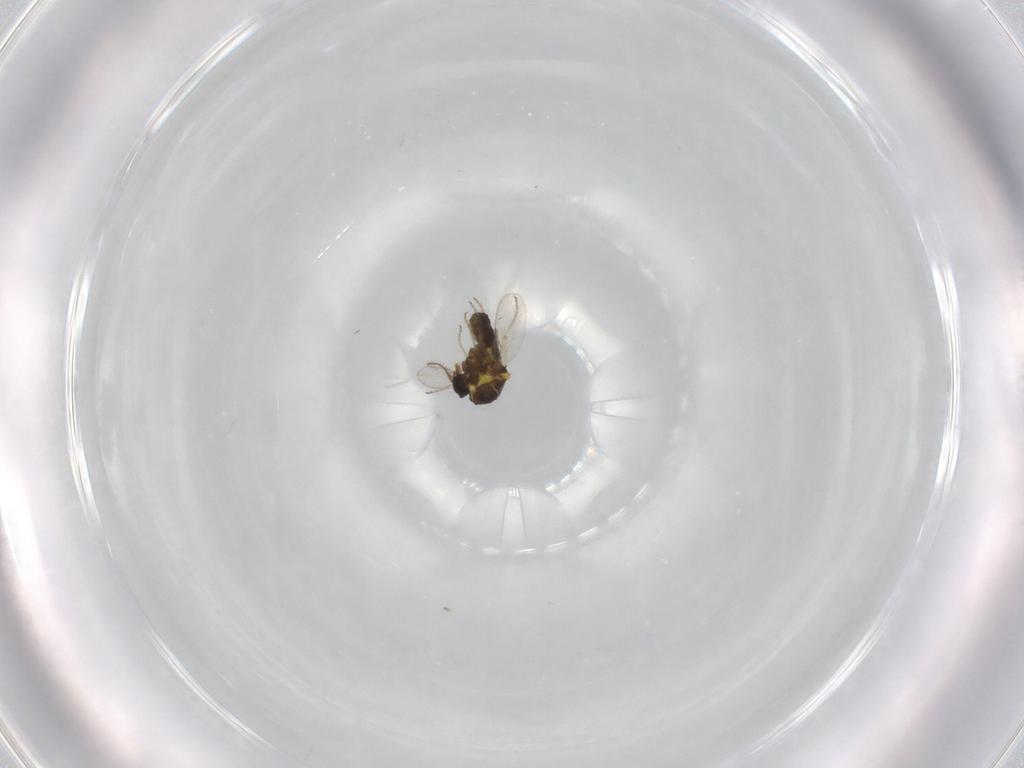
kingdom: Animalia
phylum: Arthropoda
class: Insecta
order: Diptera
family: Ceratopogonidae
